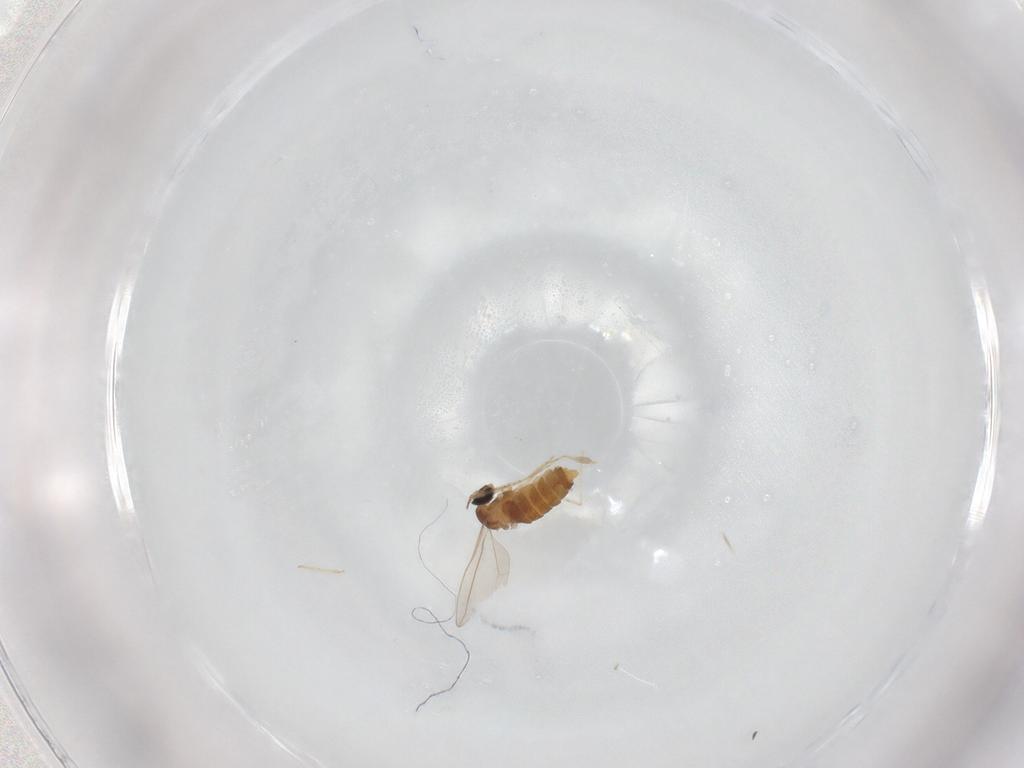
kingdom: Animalia
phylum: Arthropoda
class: Insecta
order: Diptera
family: Cecidomyiidae
